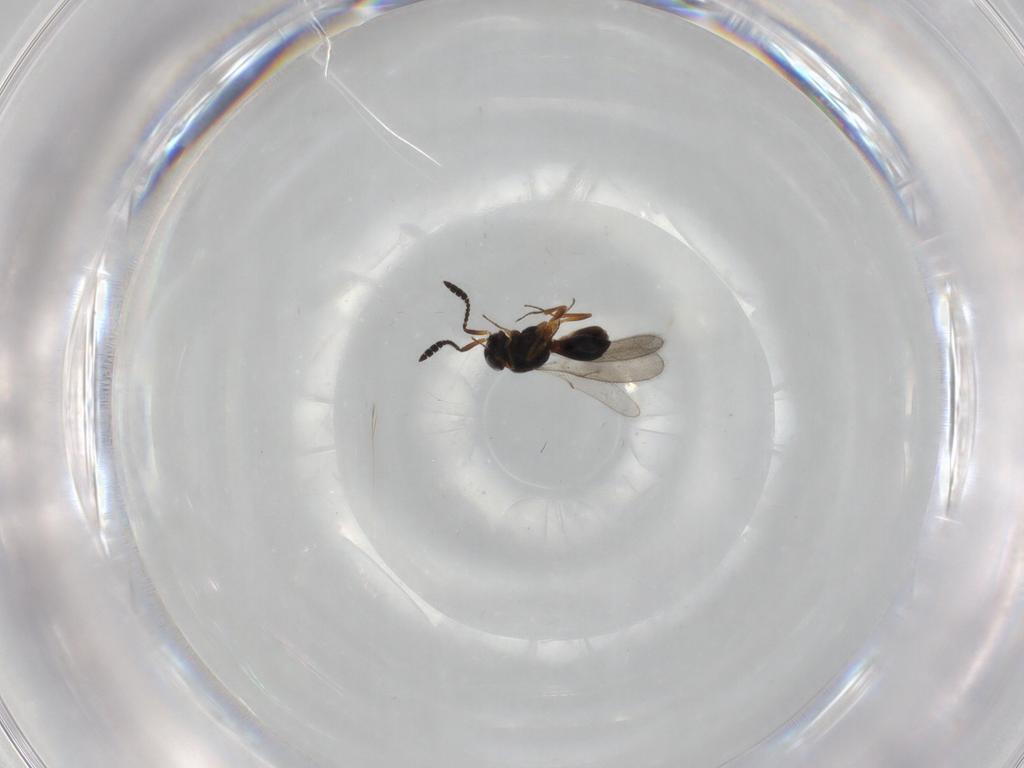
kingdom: Animalia
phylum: Arthropoda
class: Insecta
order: Hymenoptera
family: Scelionidae
